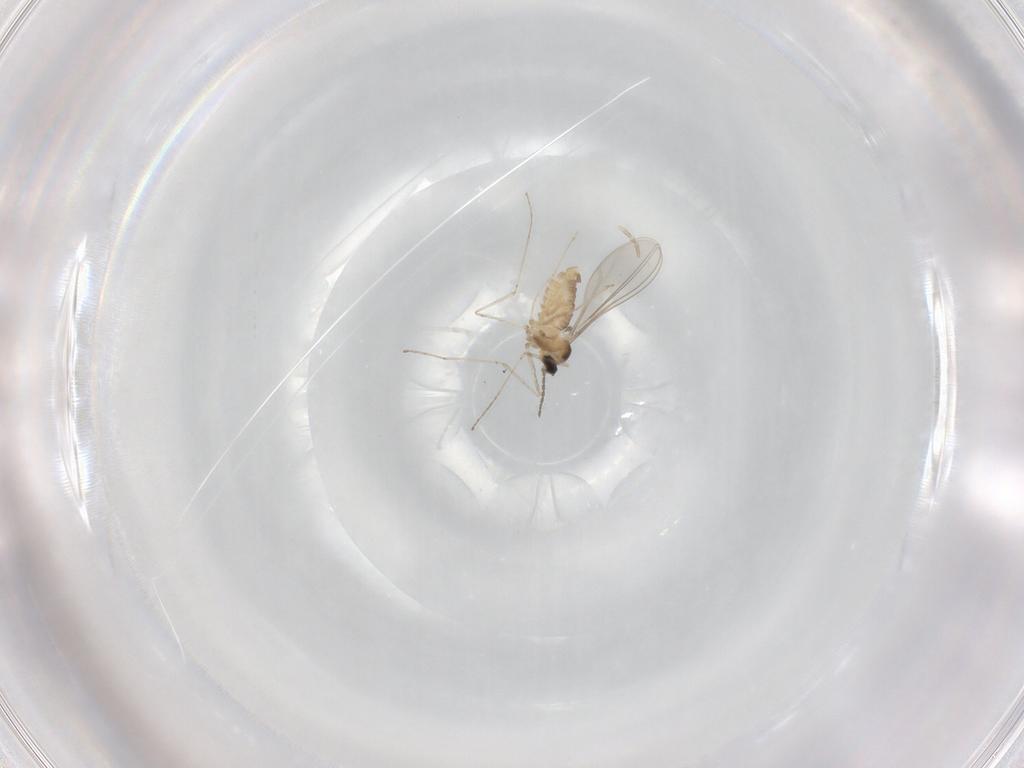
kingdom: Animalia
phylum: Arthropoda
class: Insecta
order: Diptera
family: Cecidomyiidae
